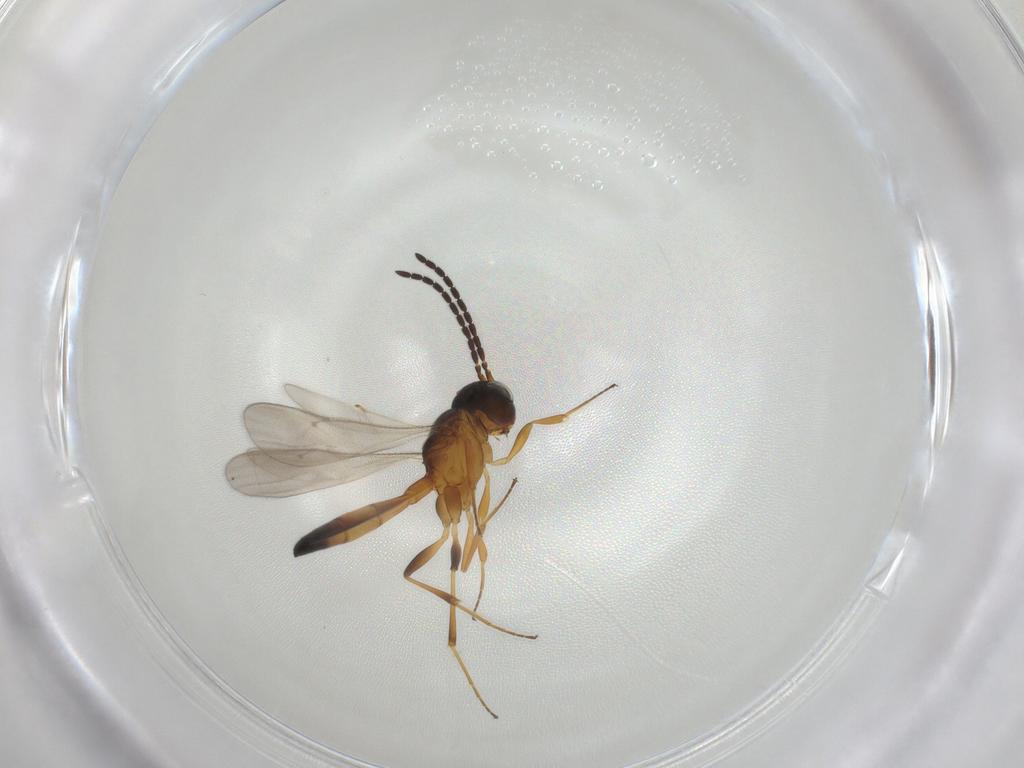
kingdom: Animalia
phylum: Arthropoda
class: Insecta
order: Hymenoptera
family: Scelionidae
